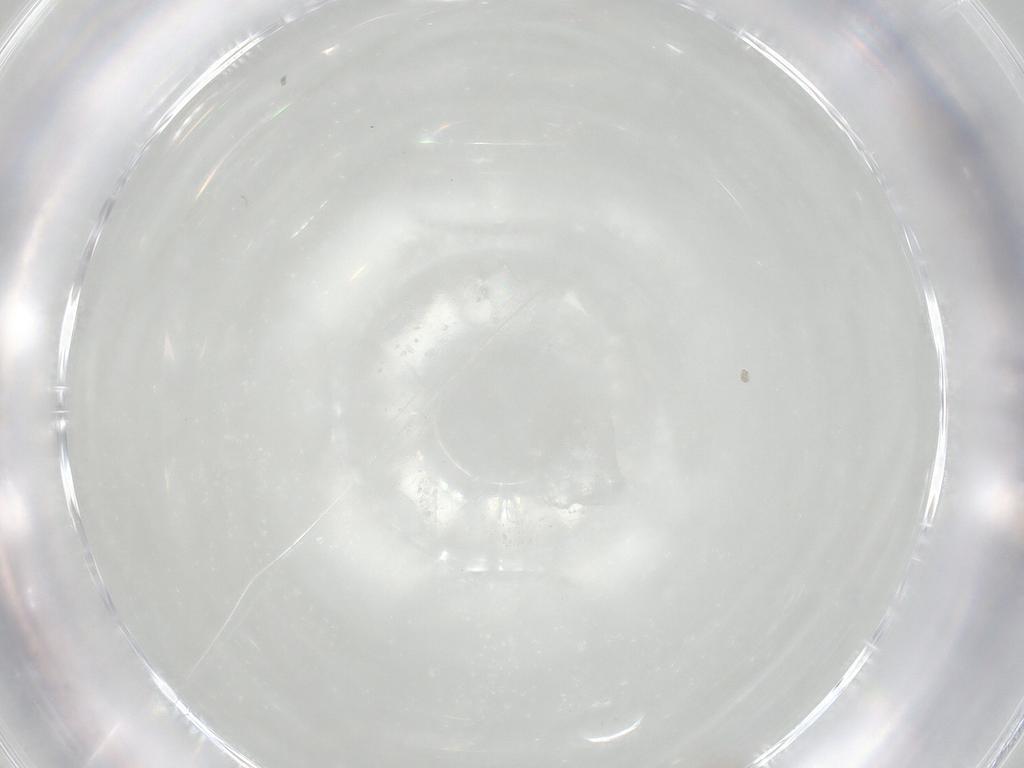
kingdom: Animalia
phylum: Arthropoda
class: Insecta
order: Diptera
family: Cecidomyiidae
